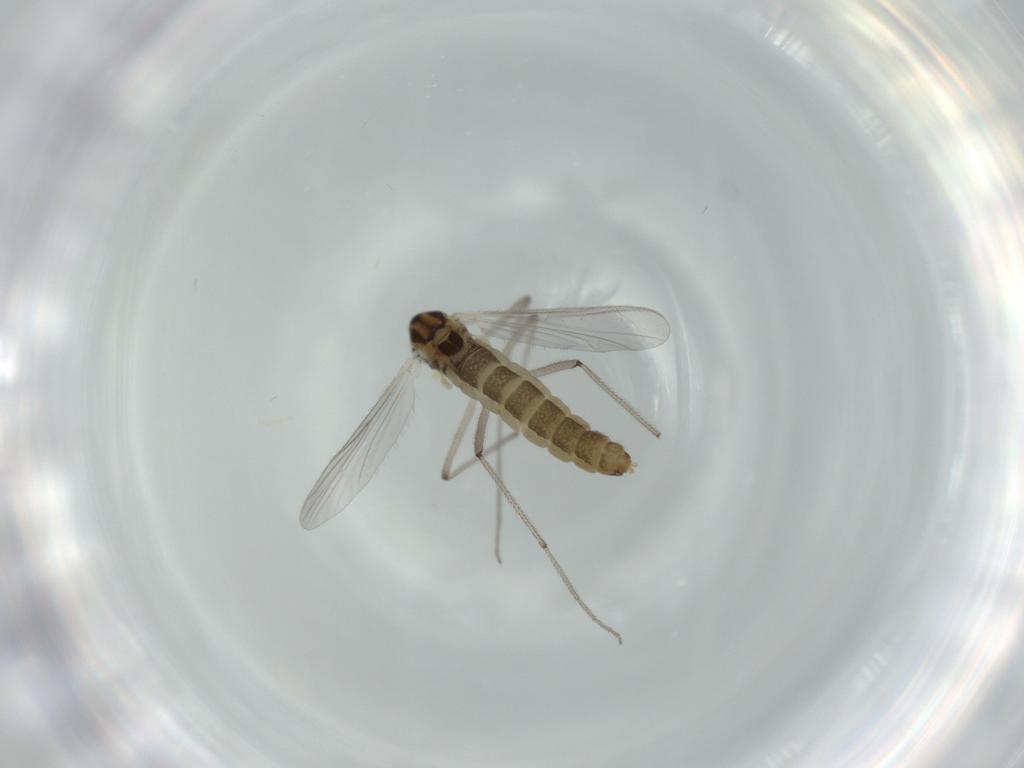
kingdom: Animalia
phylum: Arthropoda
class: Insecta
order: Diptera
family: Chironomidae
